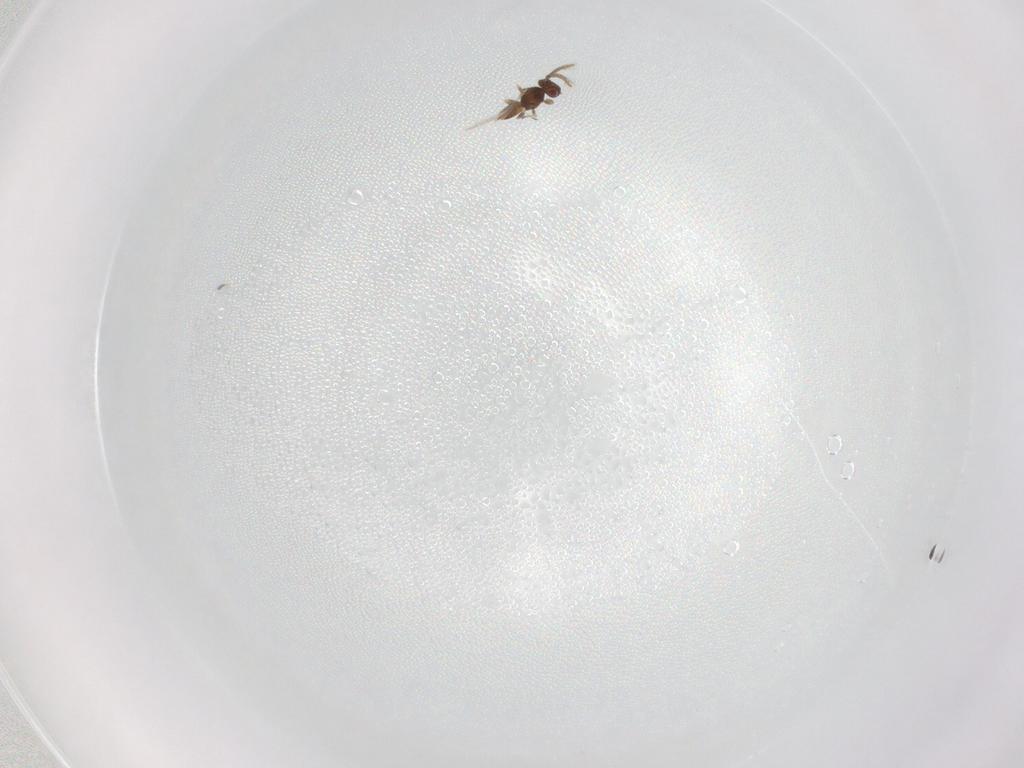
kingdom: Animalia
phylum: Arthropoda
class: Insecta
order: Hymenoptera
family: Eulophidae
